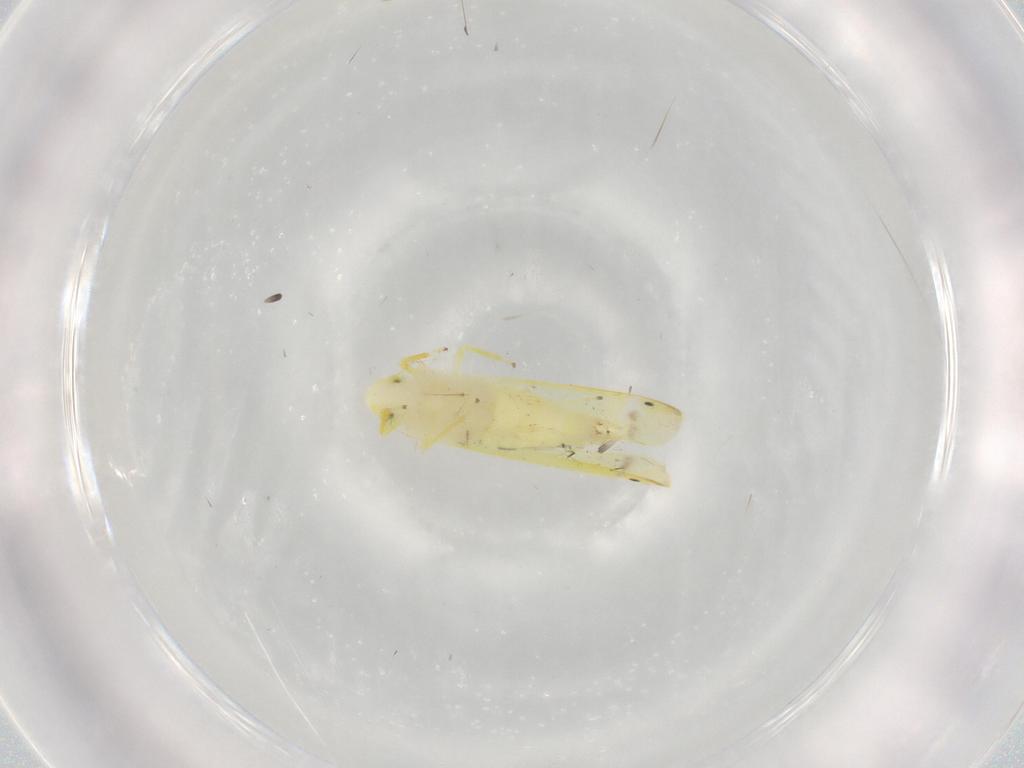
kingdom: Animalia
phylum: Arthropoda
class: Insecta
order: Hemiptera
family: Cicadellidae
